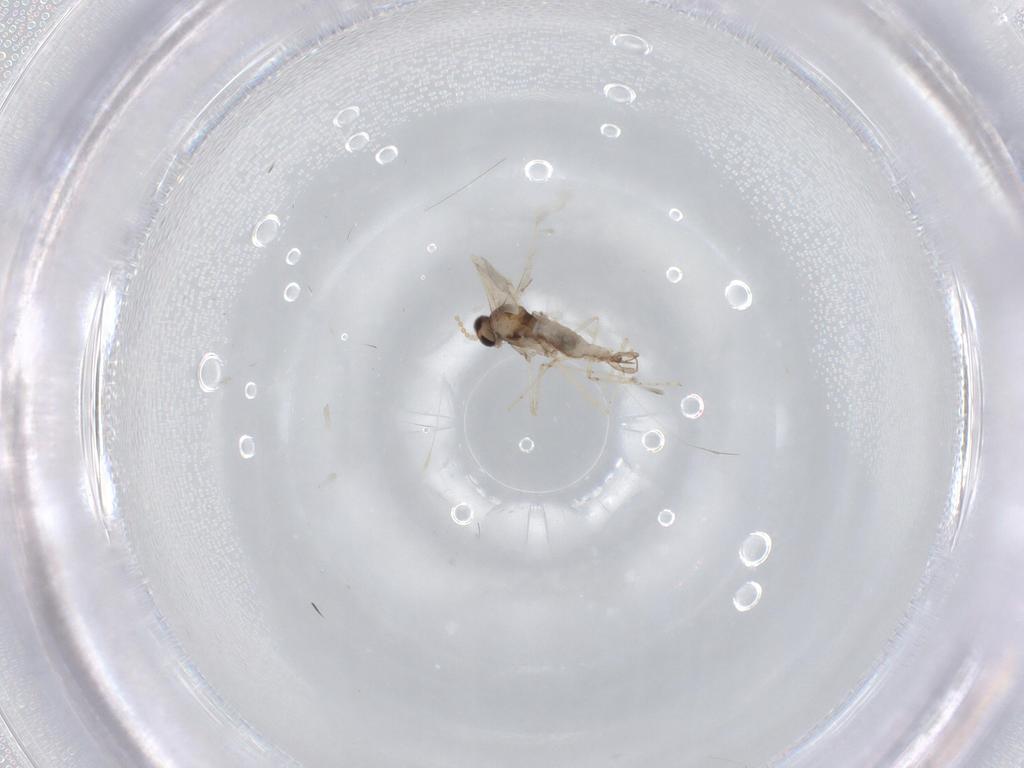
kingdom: Animalia
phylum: Arthropoda
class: Insecta
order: Diptera
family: Cecidomyiidae
